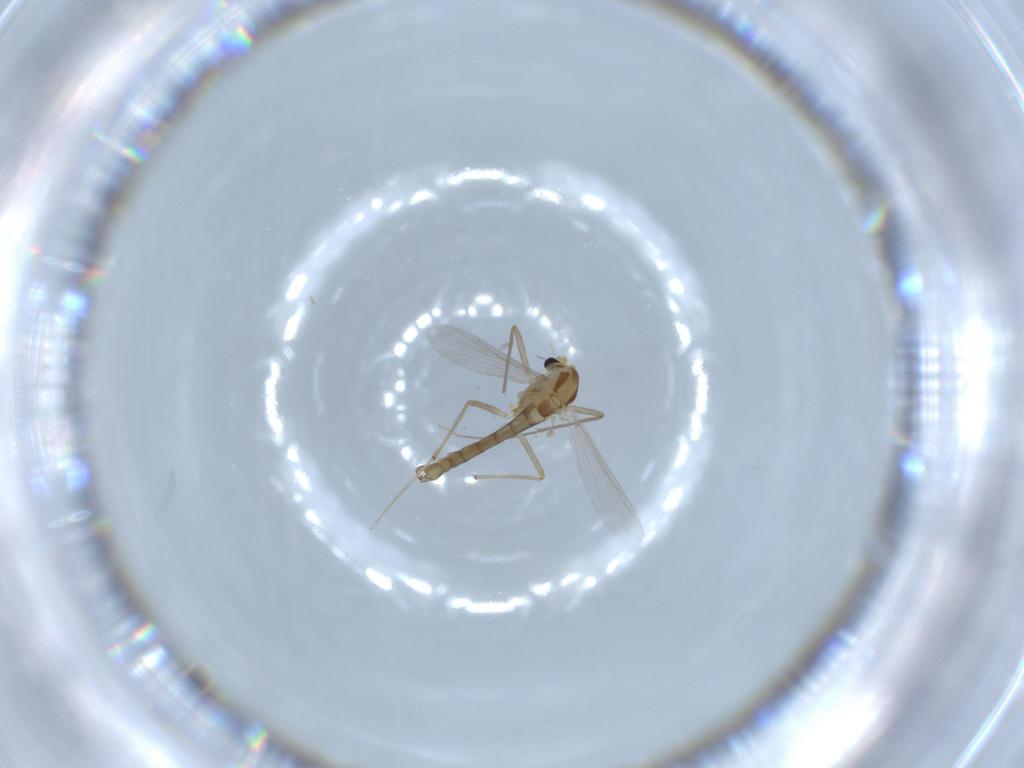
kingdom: Animalia
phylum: Arthropoda
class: Insecta
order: Diptera
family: Chironomidae
